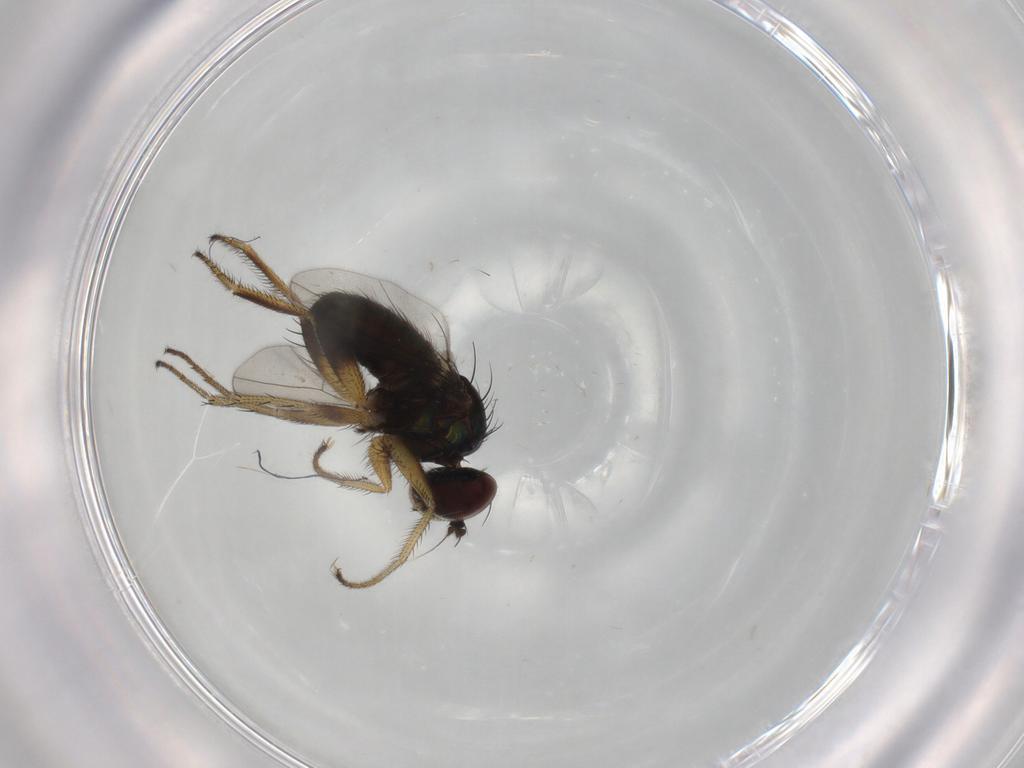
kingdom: Animalia
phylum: Arthropoda
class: Insecta
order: Diptera
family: Dolichopodidae
